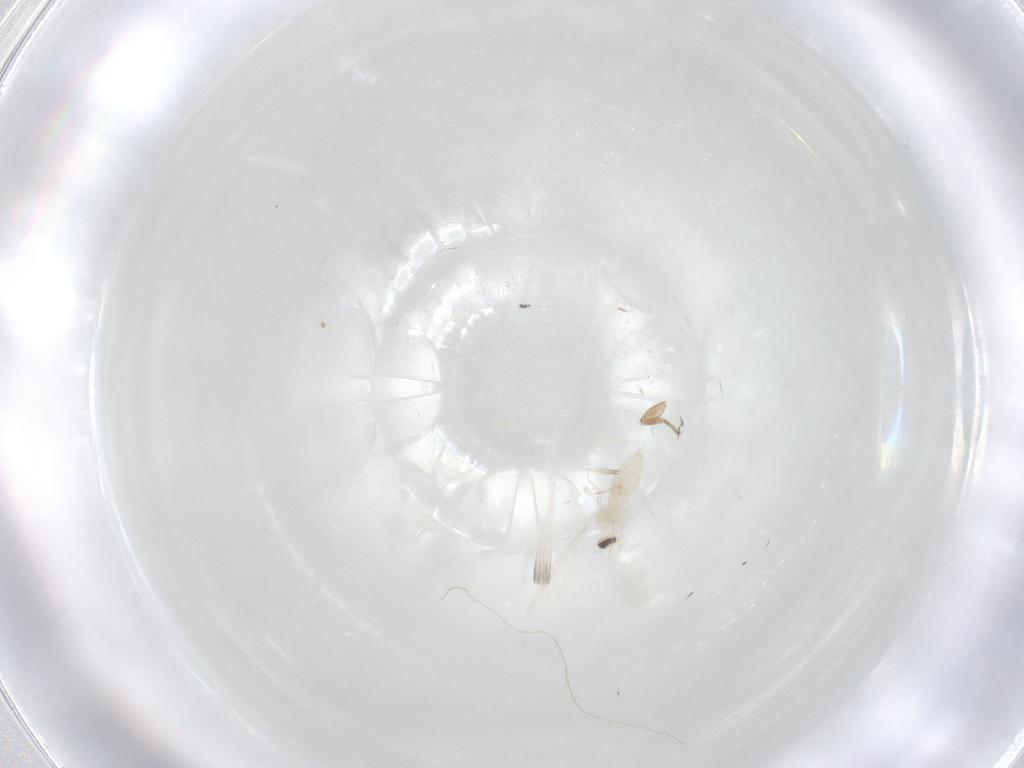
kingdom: Animalia
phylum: Arthropoda
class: Insecta
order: Diptera
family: Cecidomyiidae
